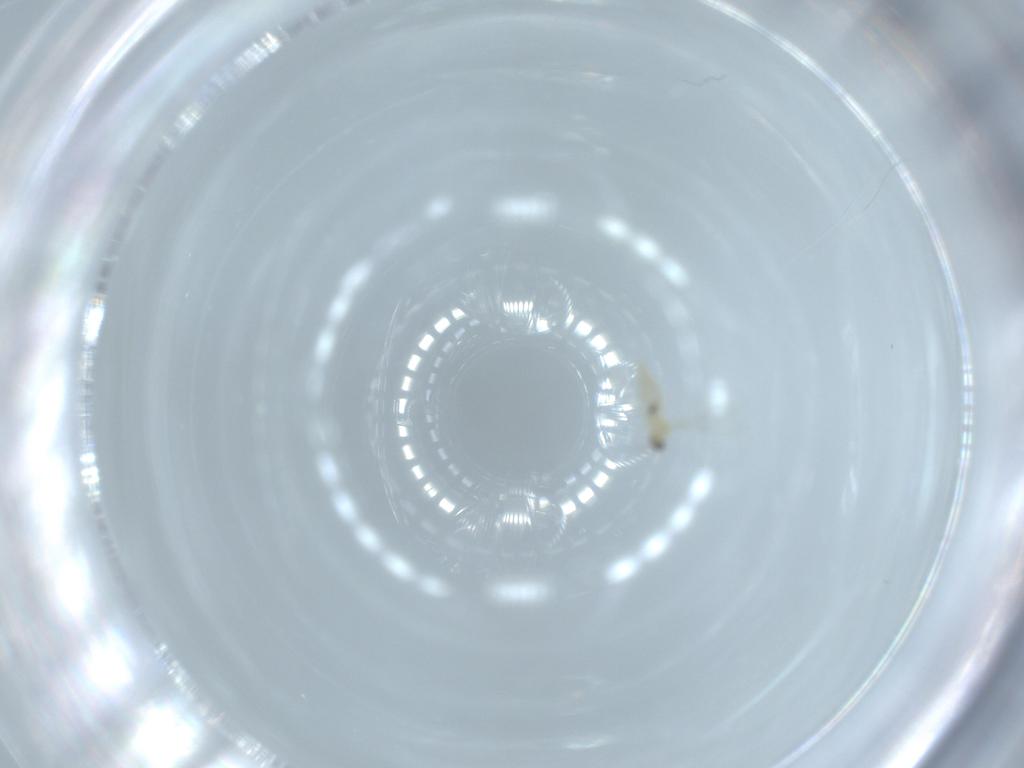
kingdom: Animalia
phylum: Arthropoda
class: Insecta
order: Diptera
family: Cecidomyiidae
